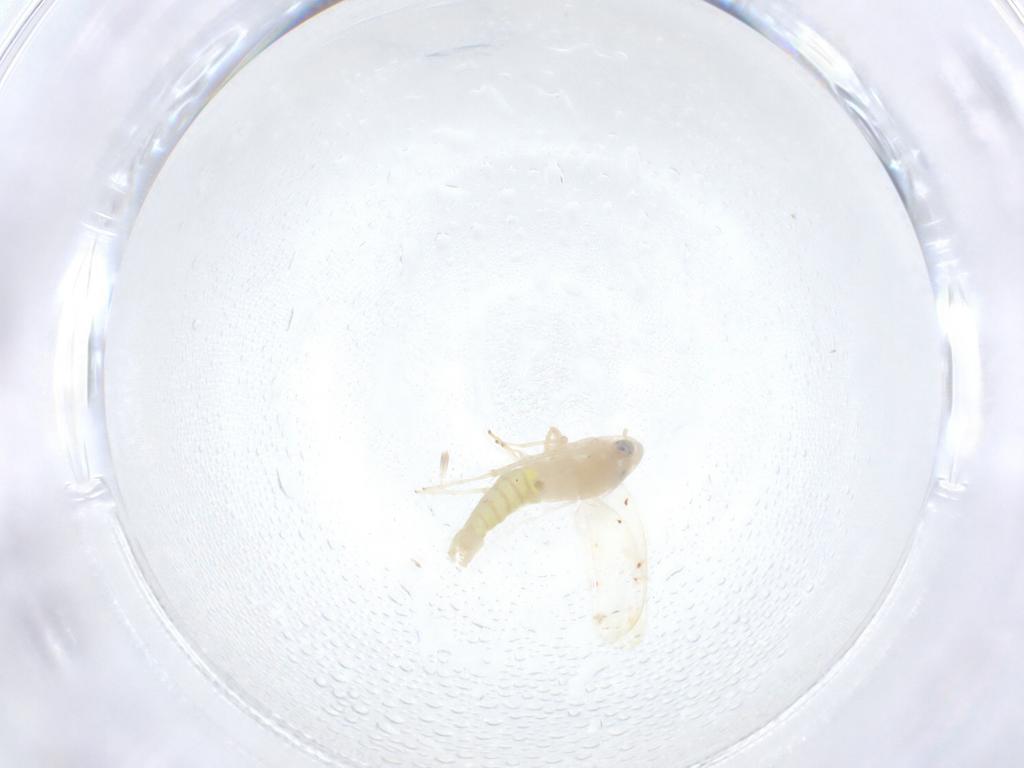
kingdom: Animalia
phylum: Arthropoda
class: Insecta
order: Hemiptera
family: Cicadellidae
